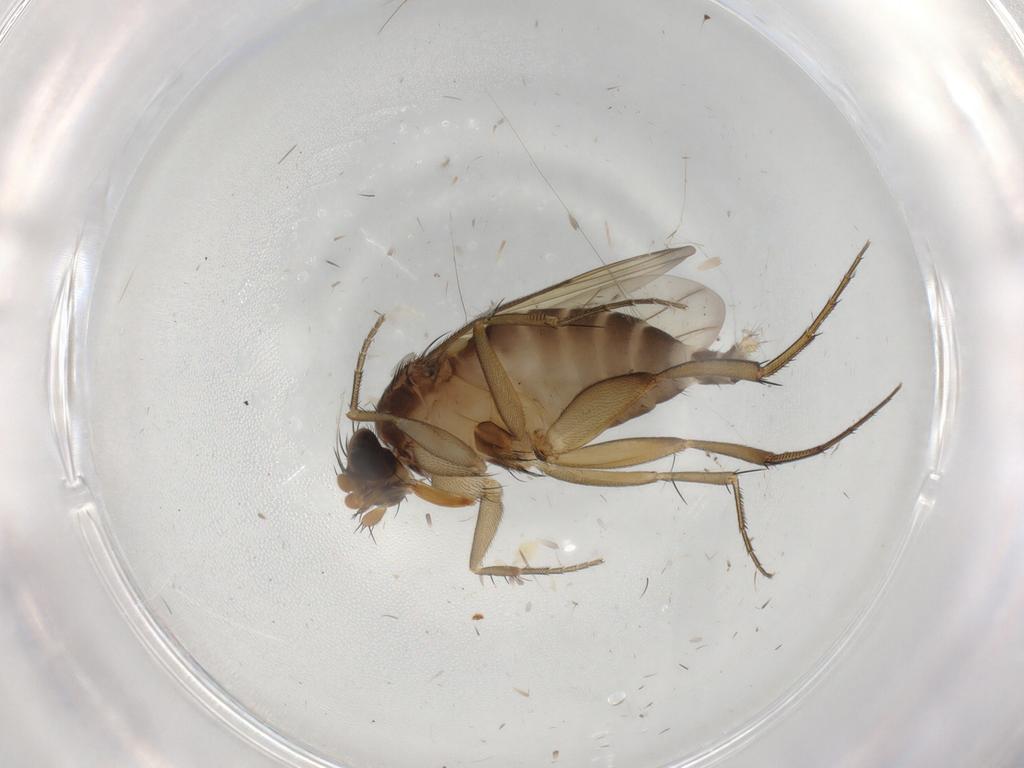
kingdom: Animalia
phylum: Arthropoda
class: Insecta
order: Diptera
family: Phoridae
